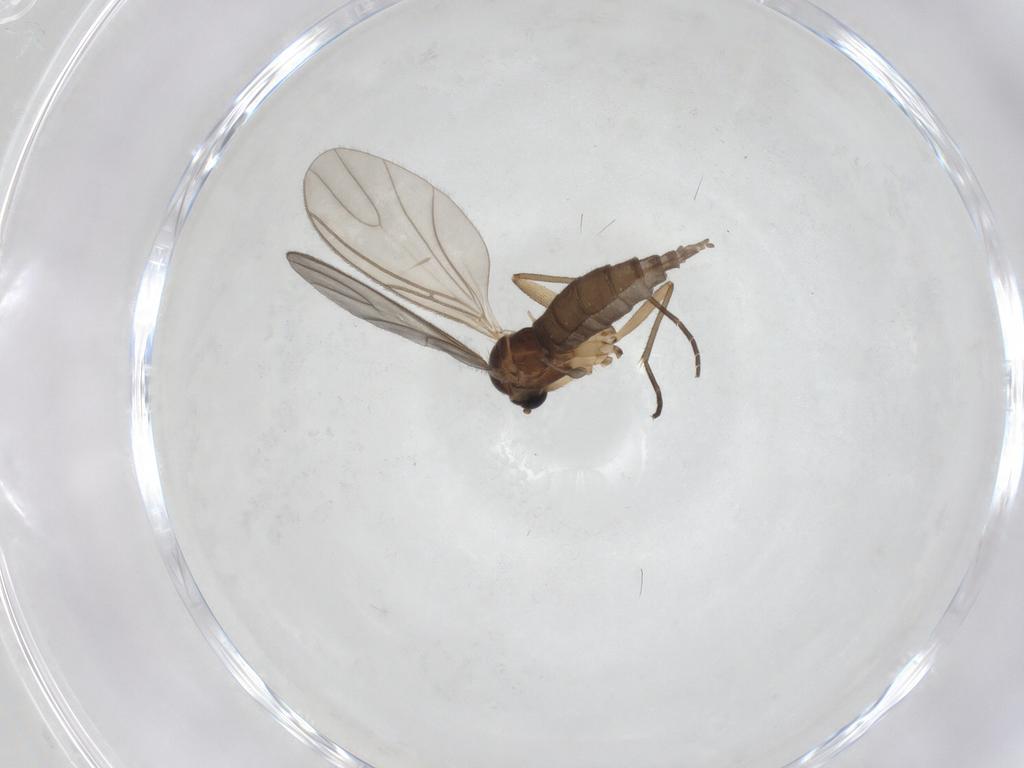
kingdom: Animalia
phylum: Arthropoda
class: Insecta
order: Diptera
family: Sciaridae
